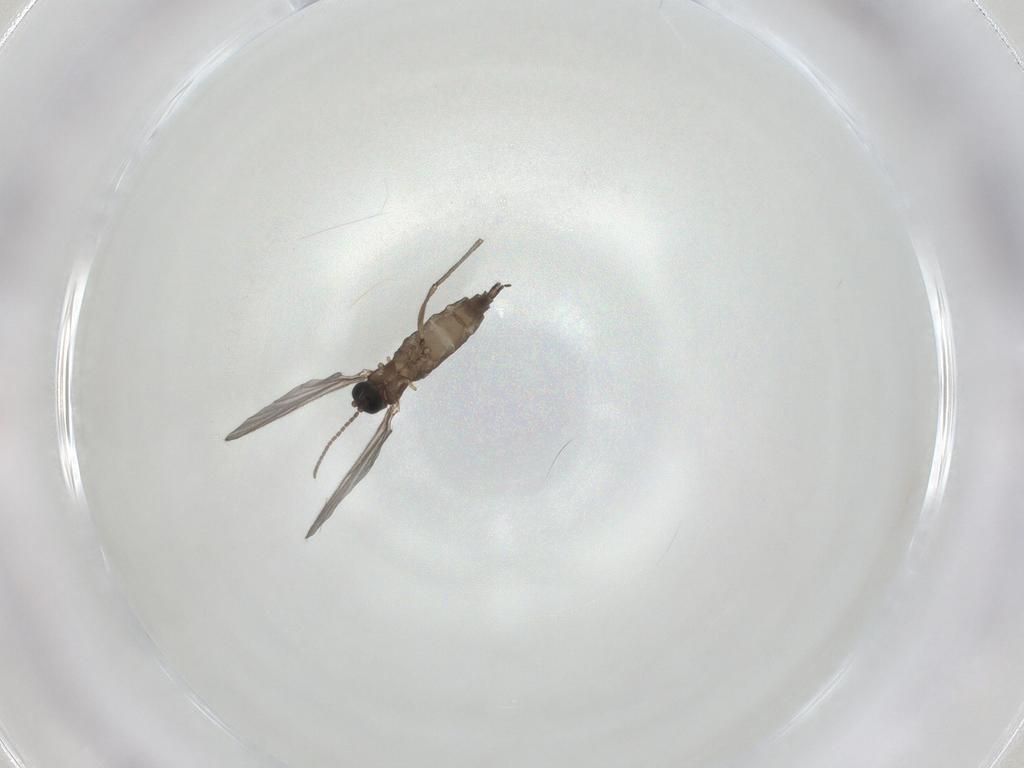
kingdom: Animalia
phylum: Arthropoda
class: Insecta
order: Diptera
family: Sciaridae
